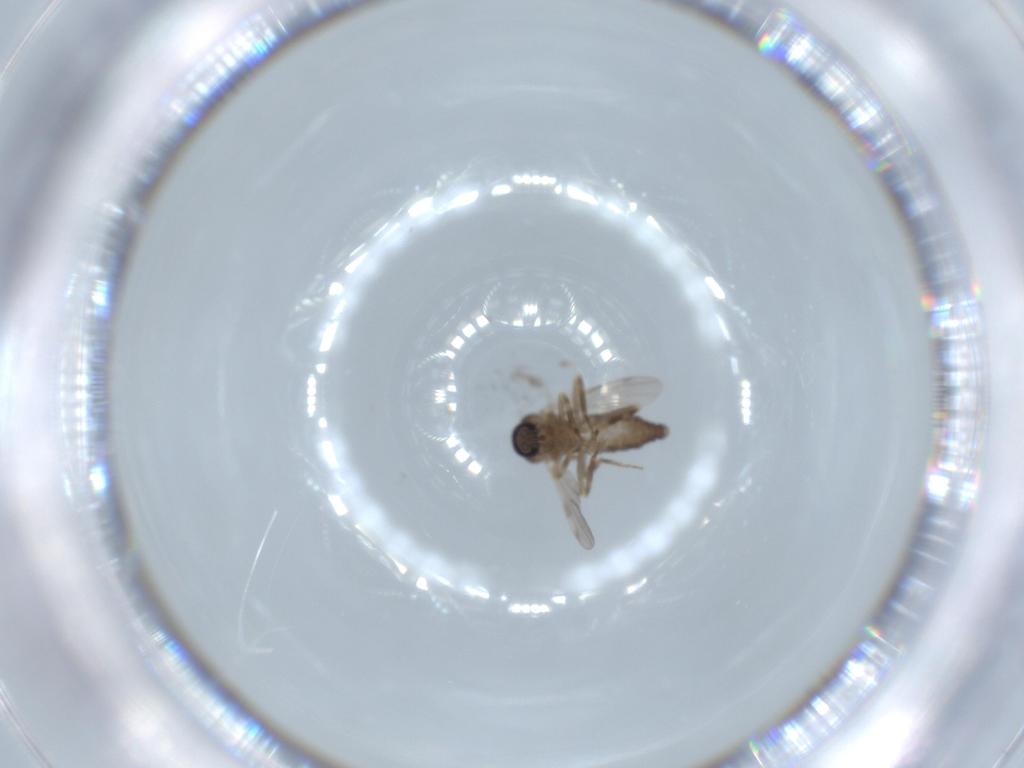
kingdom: Animalia
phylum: Arthropoda
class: Insecta
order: Diptera
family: Ceratopogonidae
